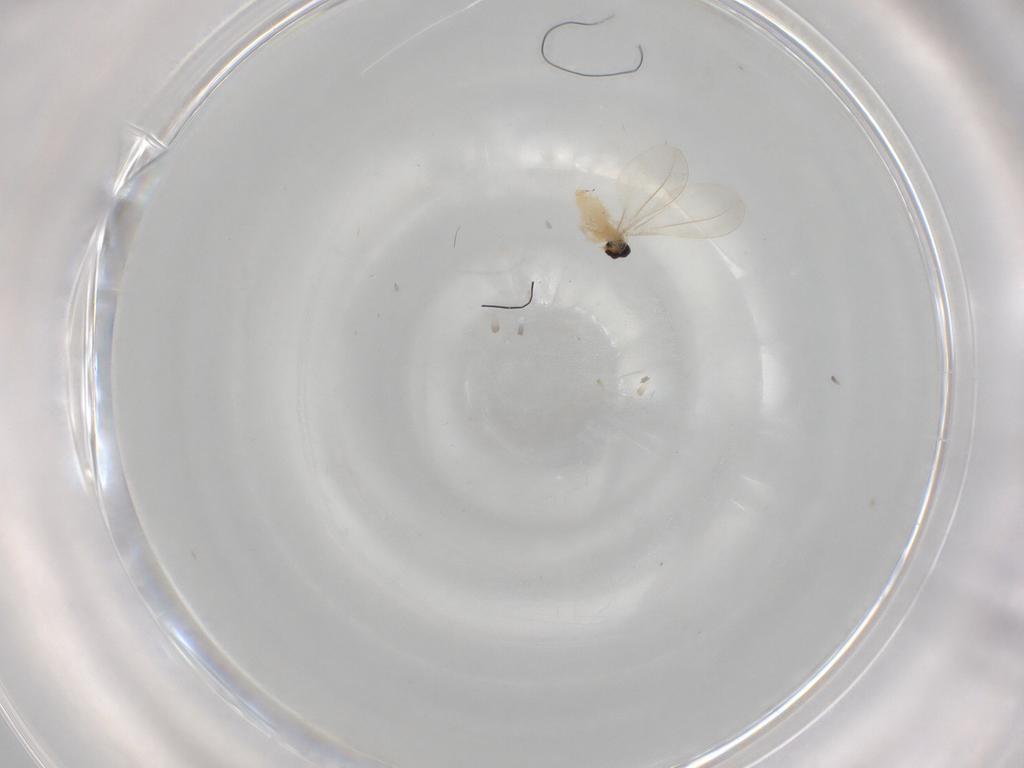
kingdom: Animalia
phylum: Arthropoda
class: Insecta
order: Diptera
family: Cecidomyiidae
